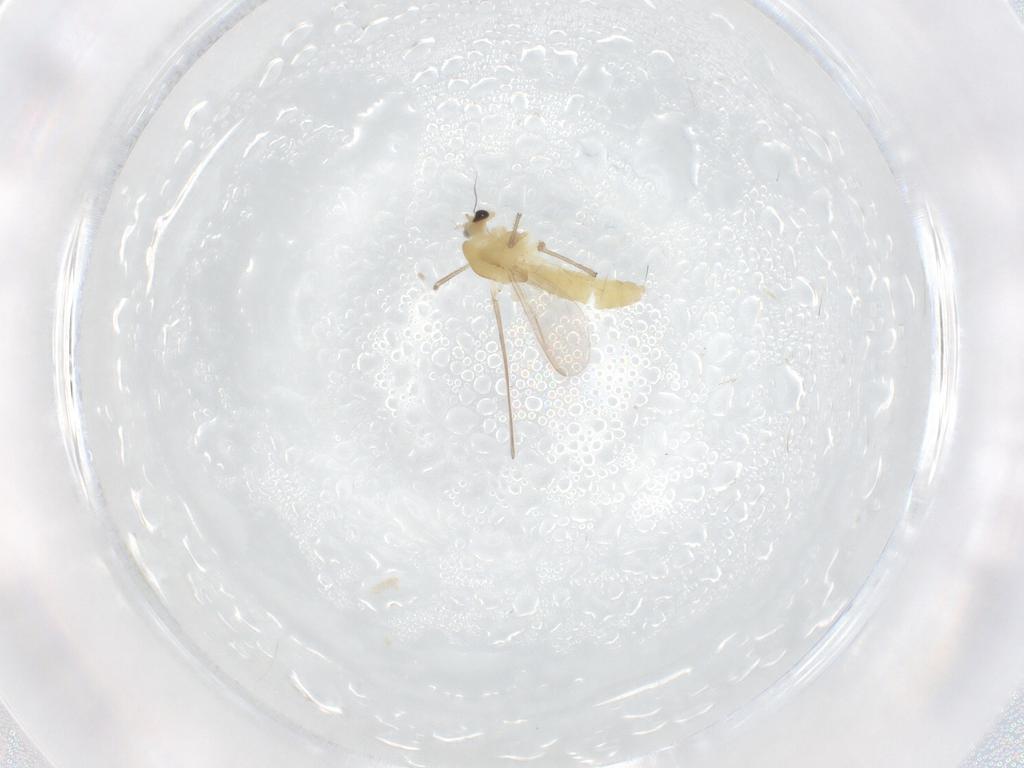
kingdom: Animalia
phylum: Arthropoda
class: Insecta
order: Diptera
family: Chironomidae
